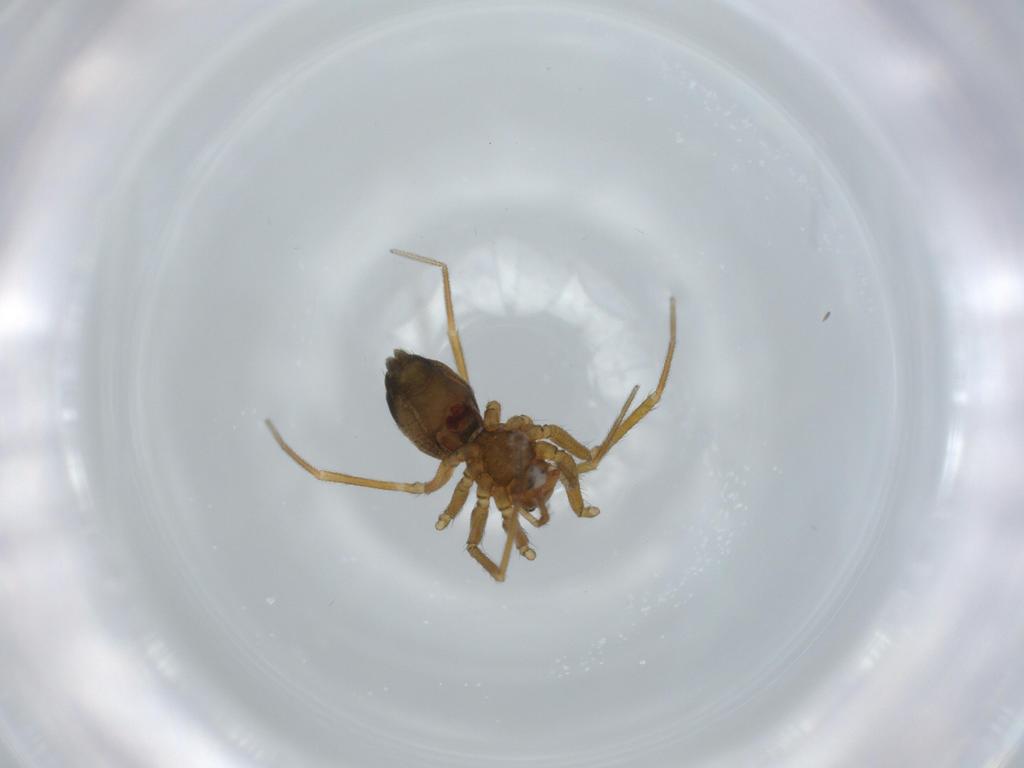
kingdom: Animalia
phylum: Arthropoda
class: Arachnida
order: Araneae
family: Linyphiidae
